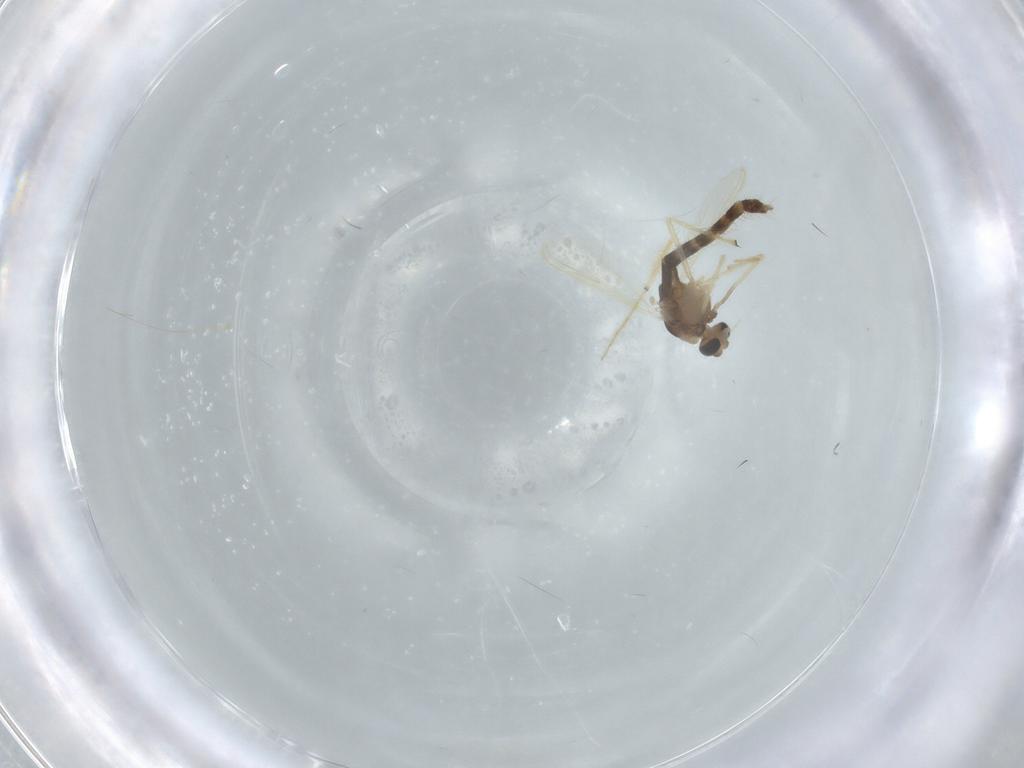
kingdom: Animalia
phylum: Arthropoda
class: Insecta
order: Diptera
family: Chironomidae
